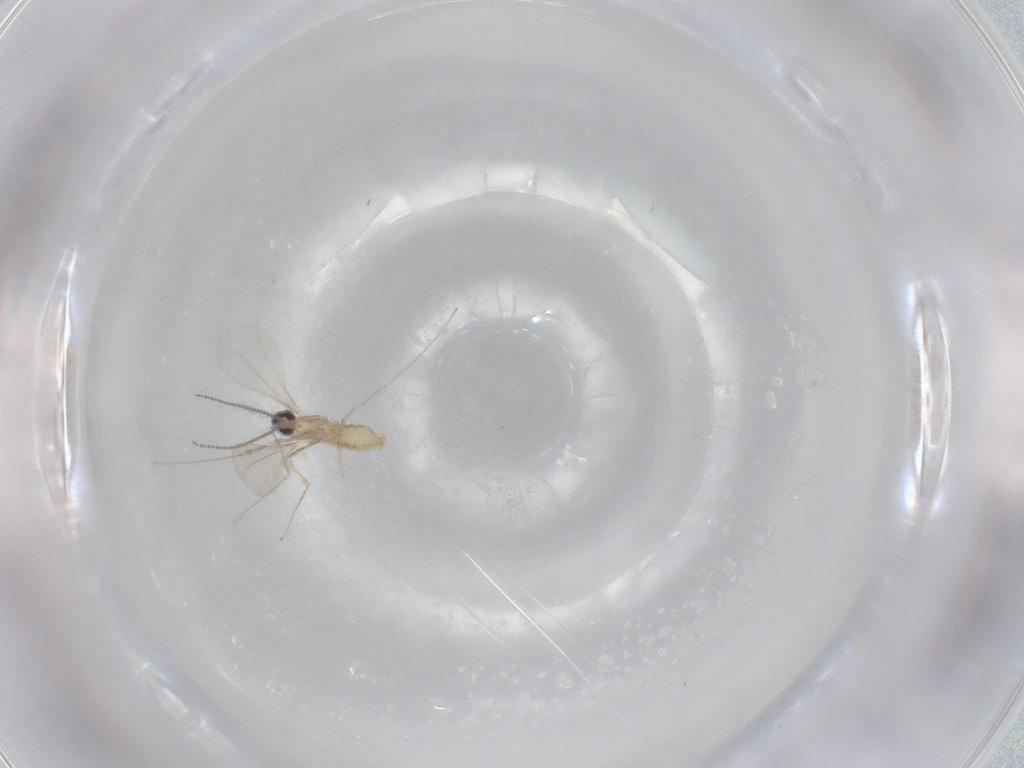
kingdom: Animalia
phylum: Arthropoda
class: Insecta
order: Diptera
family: Cecidomyiidae
